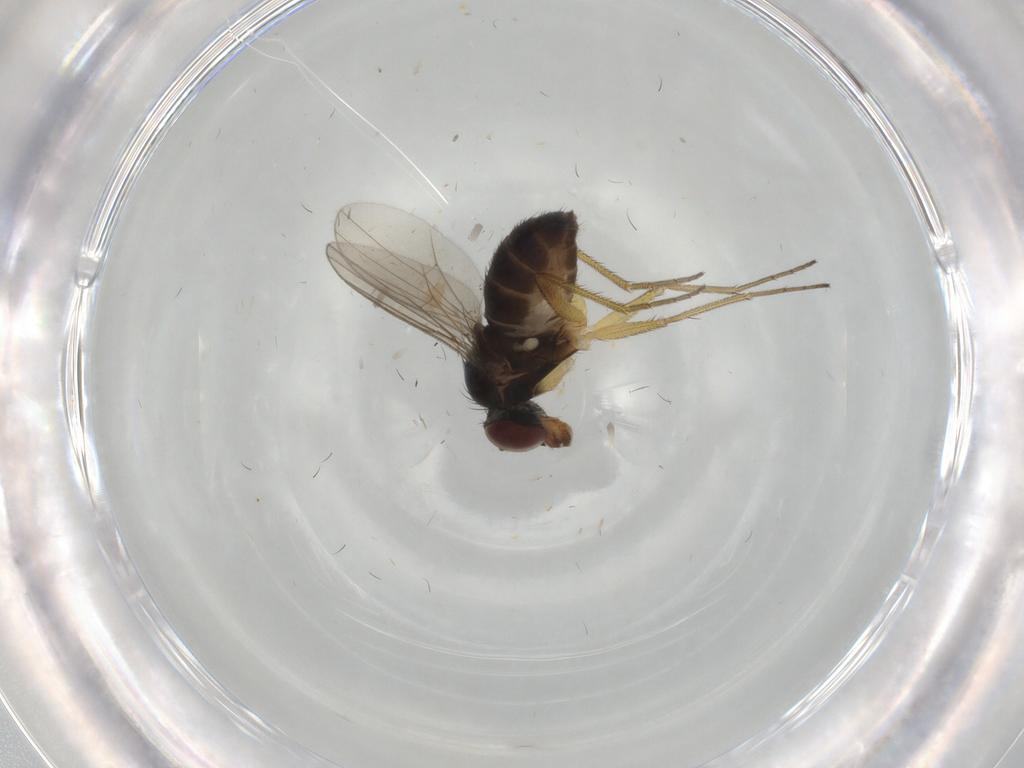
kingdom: Animalia
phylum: Arthropoda
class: Insecta
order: Diptera
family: Dolichopodidae
